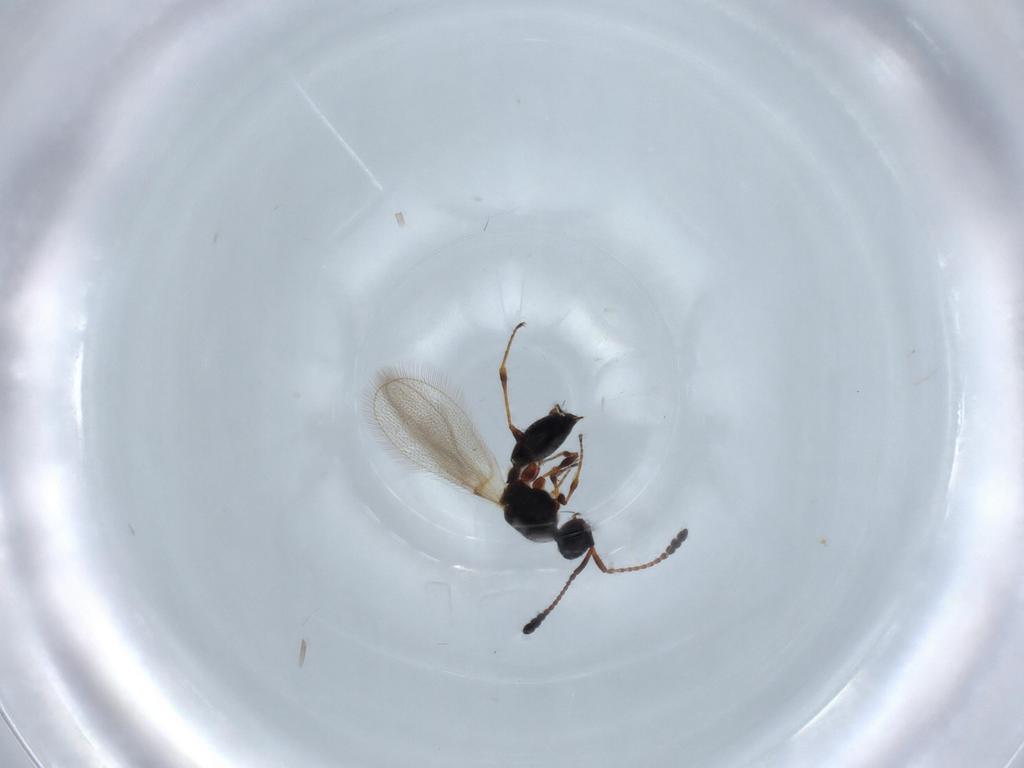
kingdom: Animalia
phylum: Arthropoda
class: Insecta
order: Hymenoptera
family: Diapriidae
